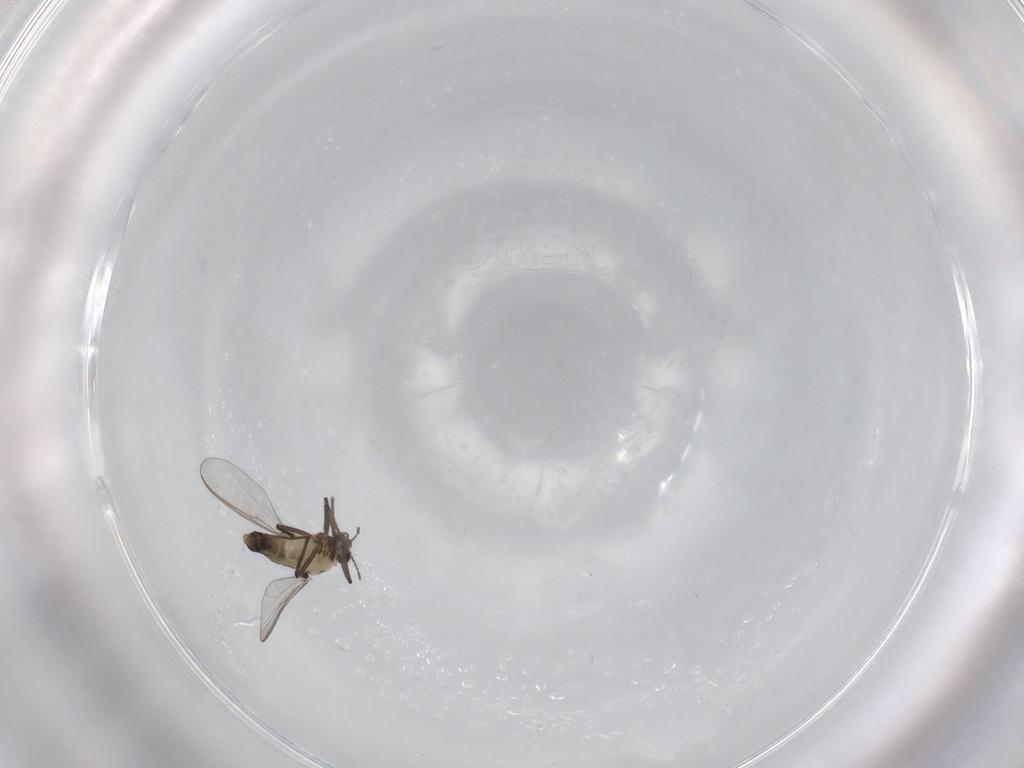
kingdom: Animalia
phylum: Arthropoda
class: Insecta
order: Diptera
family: Chironomidae
